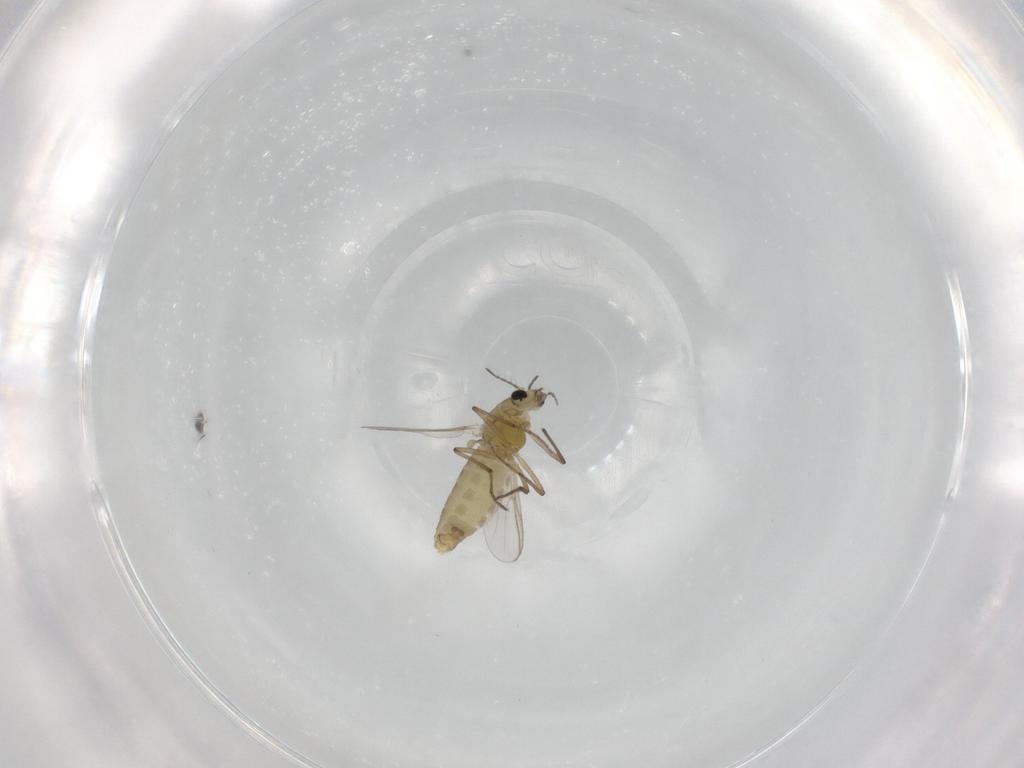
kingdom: Animalia
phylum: Arthropoda
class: Insecta
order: Diptera
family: Chironomidae
